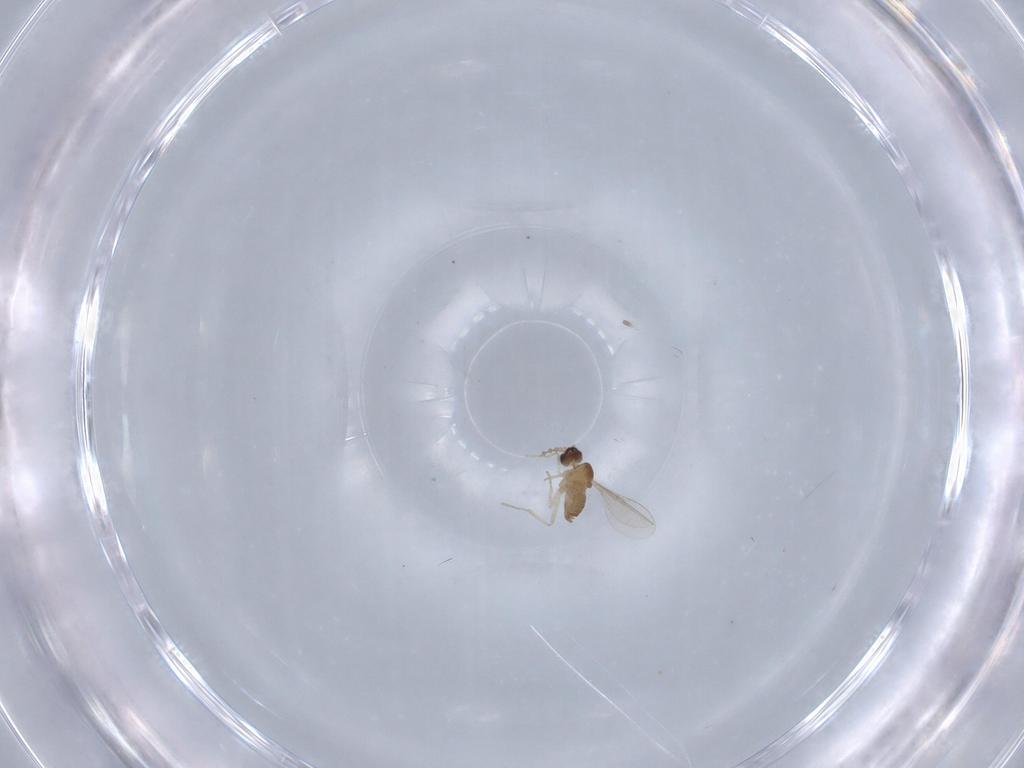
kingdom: Animalia
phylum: Arthropoda
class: Insecta
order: Diptera
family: Cecidomyiidae
